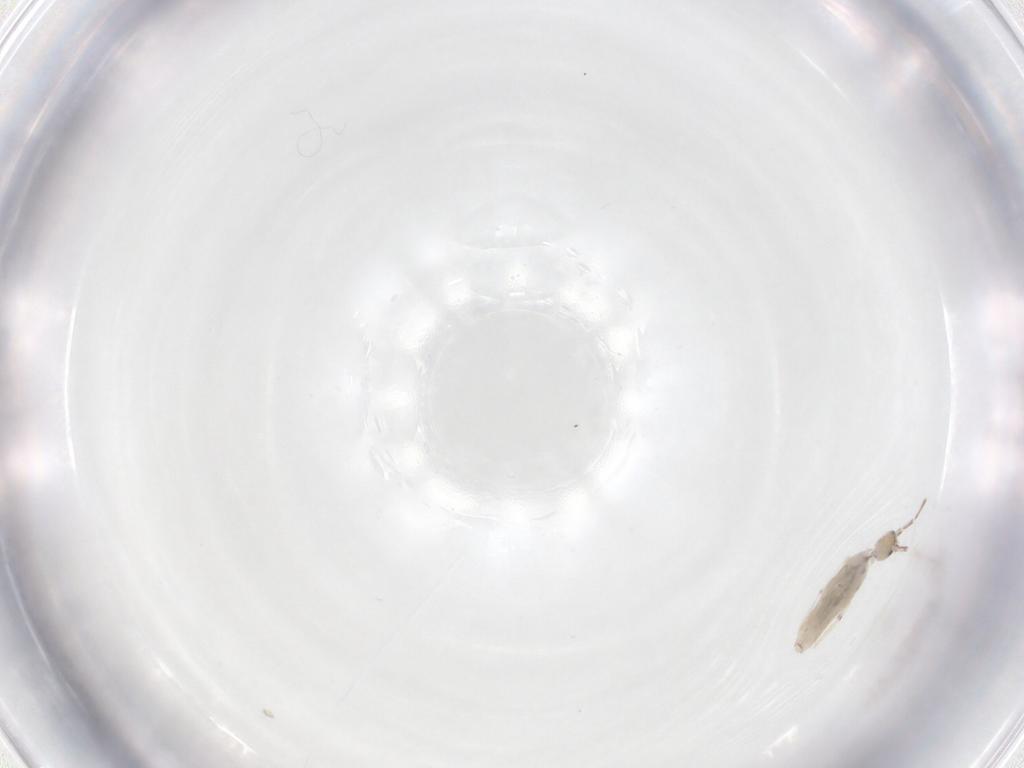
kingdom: Animalia
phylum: Arthropoda
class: Collembola
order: Entomobryomorpha
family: Entomobryidae
